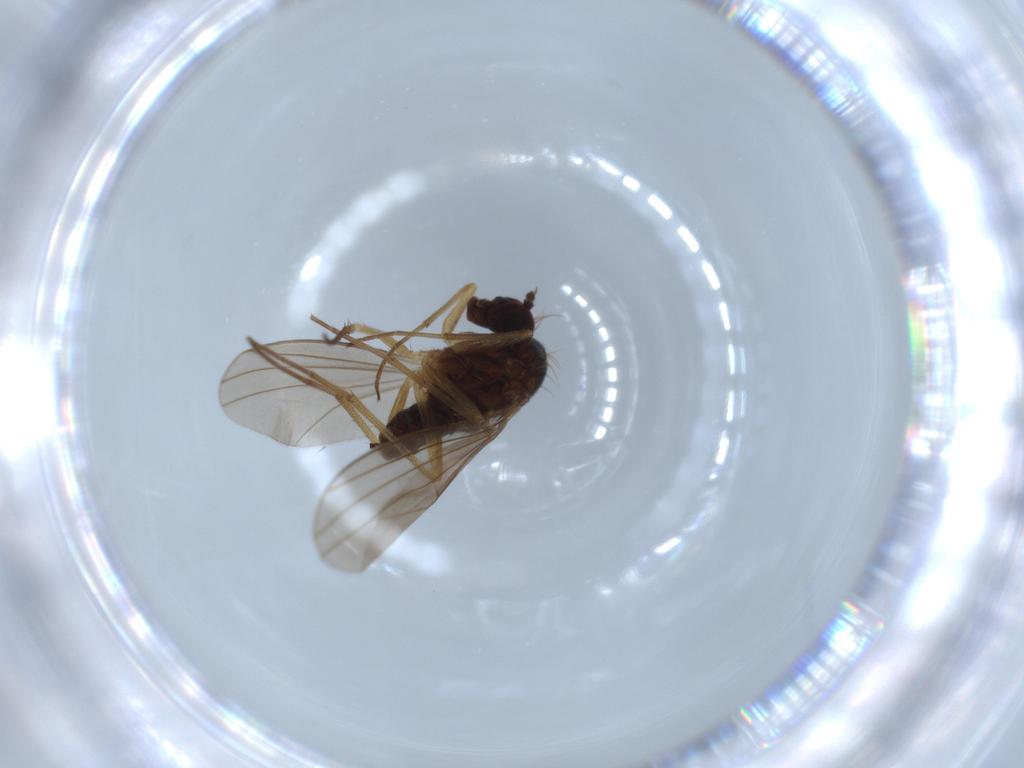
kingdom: Animalia
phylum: Arthropoda
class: Insecta
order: Diptera
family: Dolichopodidae
